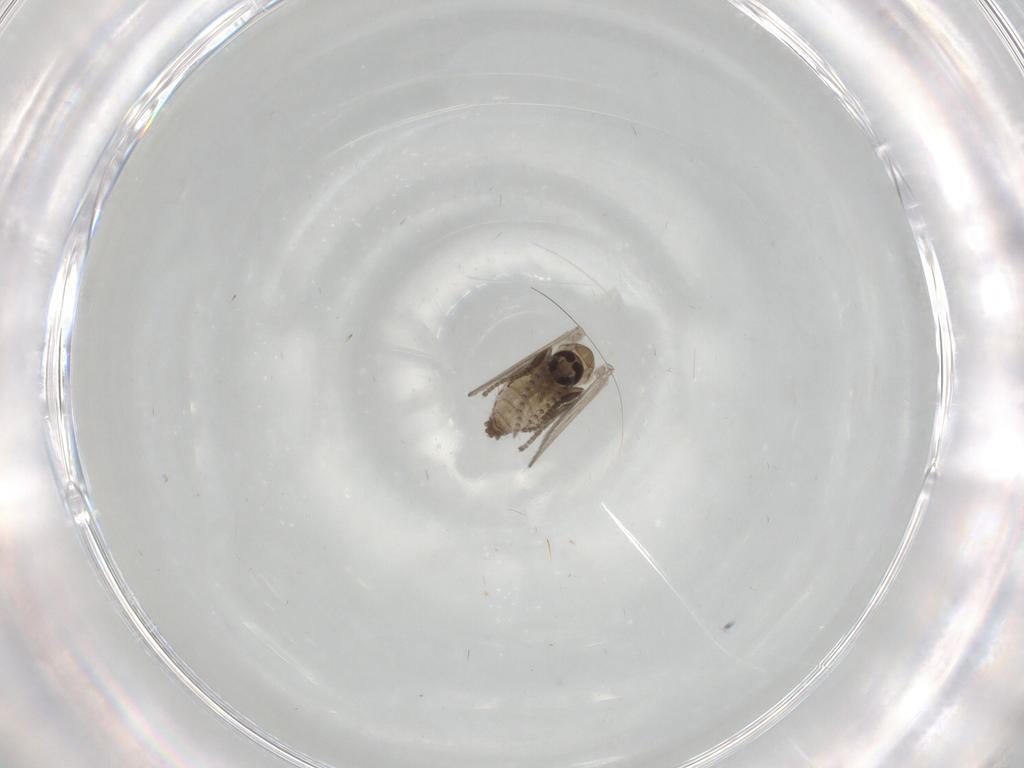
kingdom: Animalia
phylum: Arthropoda
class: Insecta
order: Diptera
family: Psychodidae
